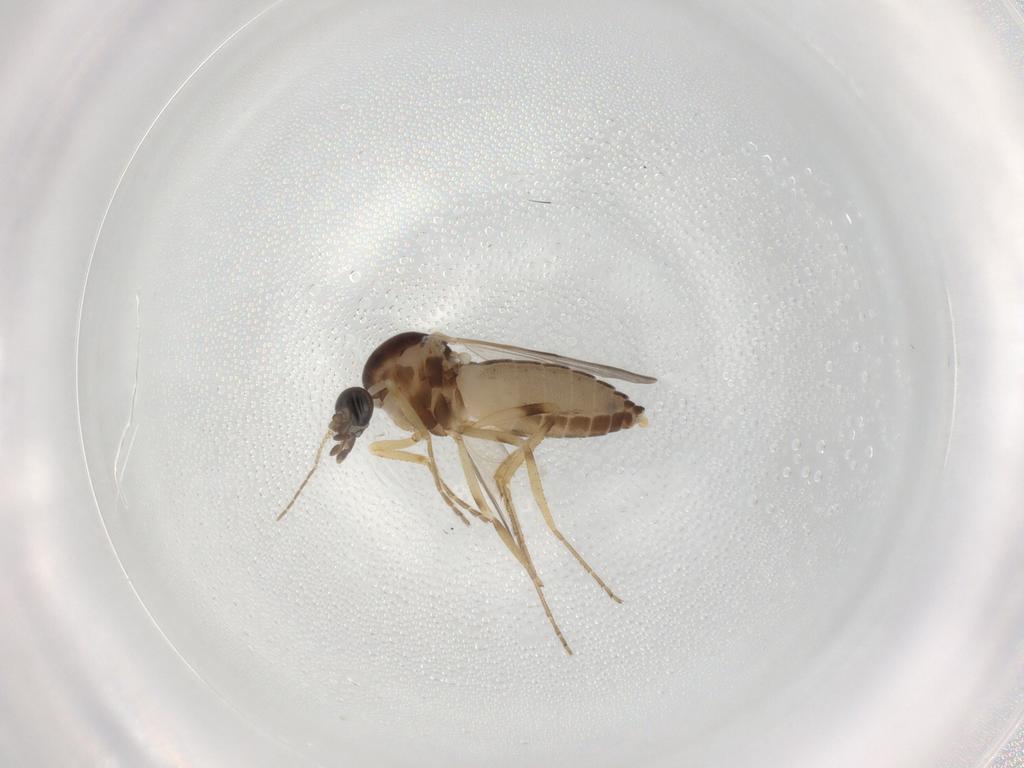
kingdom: Animalia
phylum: Arthropoda
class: Insecta
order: Diptera
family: Ceratopogonidae
